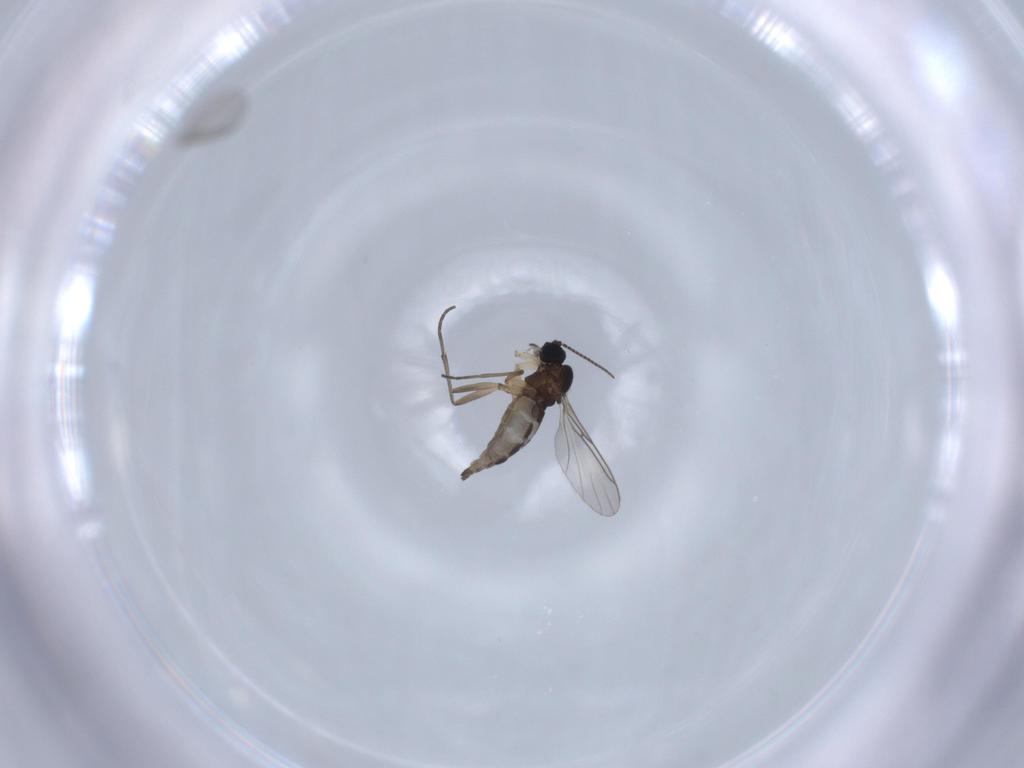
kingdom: Animalia
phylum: Arthropoda
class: Insecta
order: Diptera
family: Sciaridae
